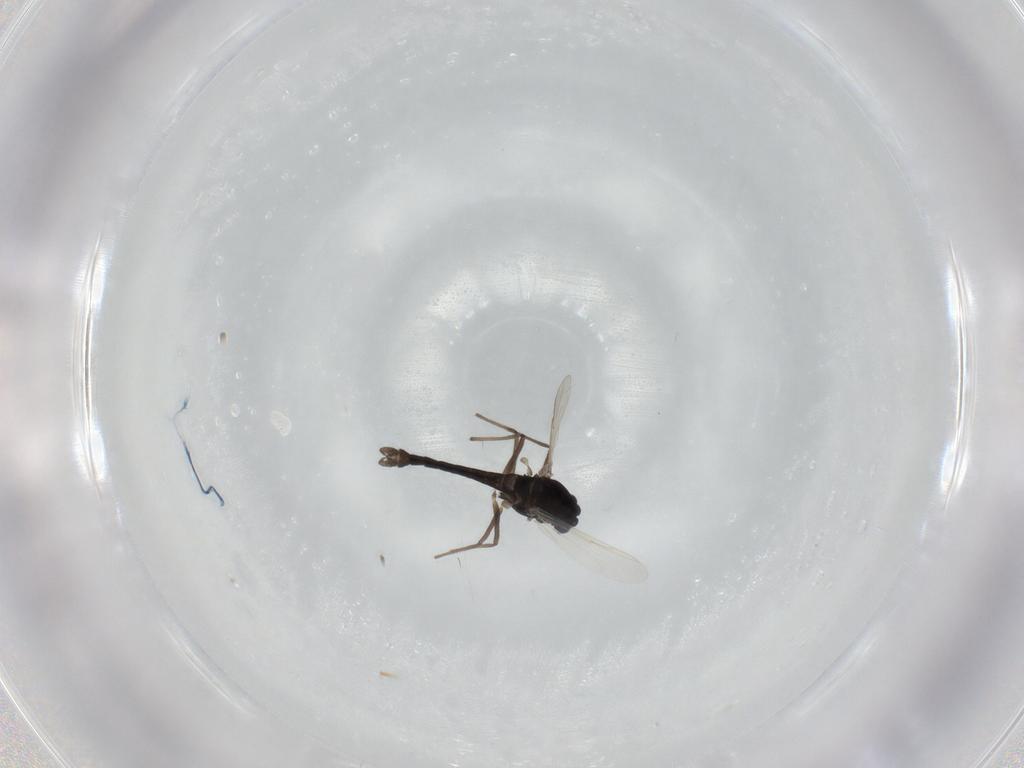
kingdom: Animalia
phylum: Arthropoda
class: Insecta
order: Diptera
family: Chironomidae
